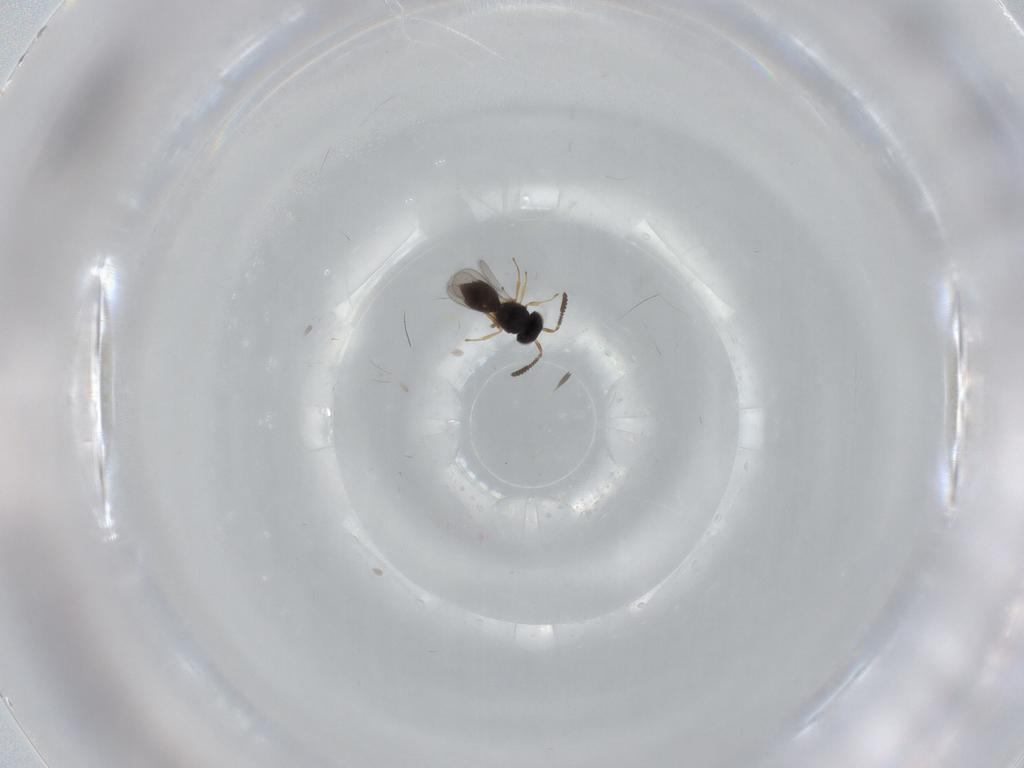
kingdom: Animalia
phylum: Arthropoda
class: Insecta
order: Hymenoptera
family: Scelionidae
